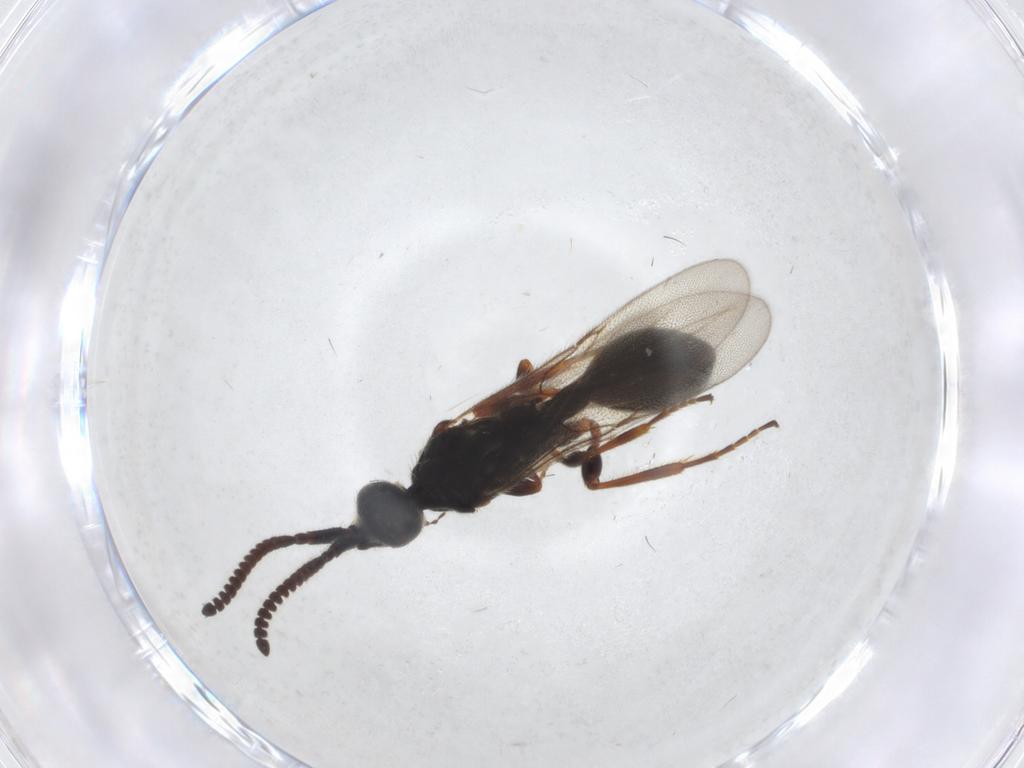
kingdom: Animalia
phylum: Arthropoda
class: Insecta
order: Hymenoptera
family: Diapriidae
